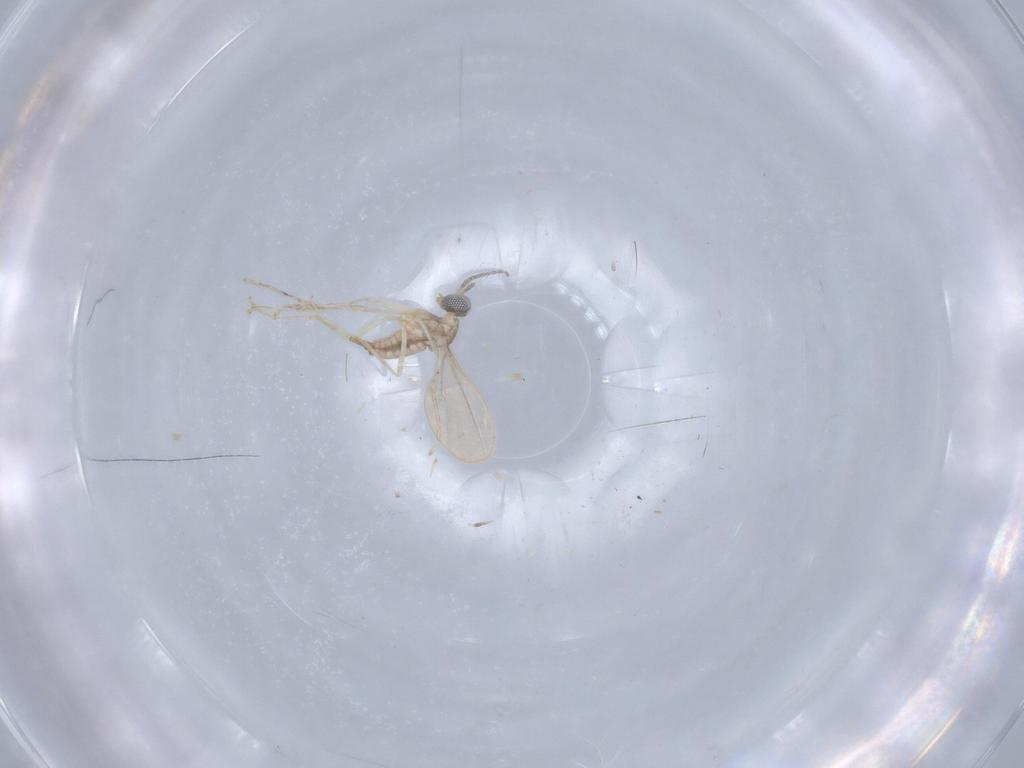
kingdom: Animalia
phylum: Arthropoda
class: Insecta
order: Diptera
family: Cecidomyiidae
